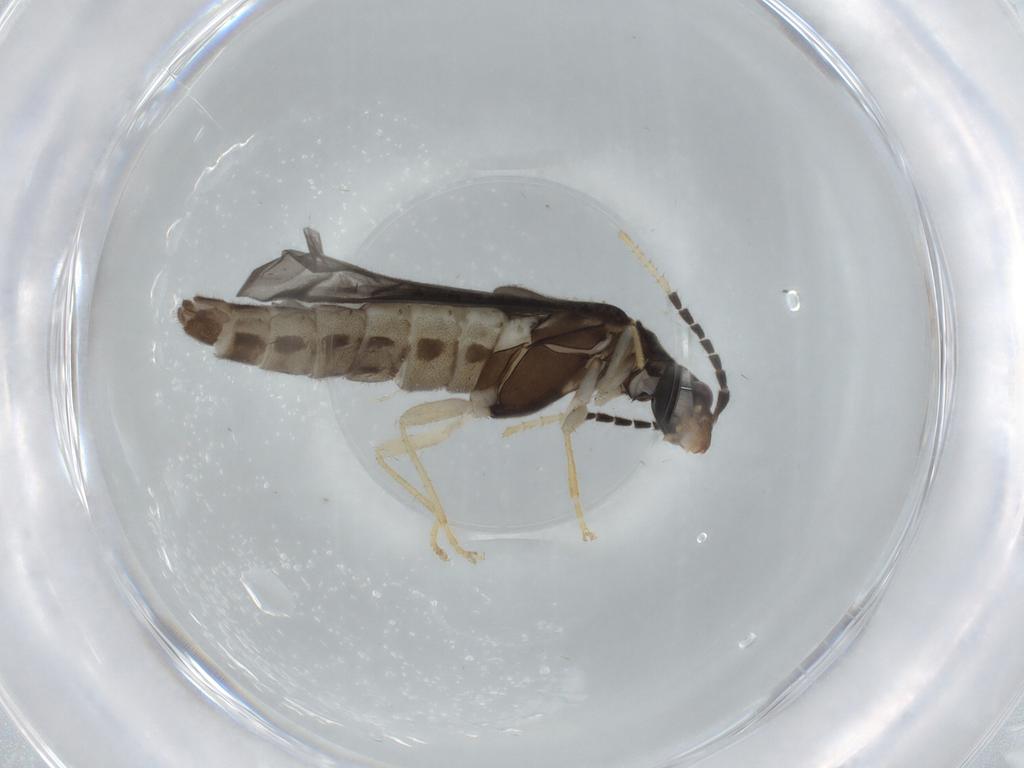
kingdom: Animalia
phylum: Arthropoda
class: Insecta
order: Coleoptera
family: Cantharidae
